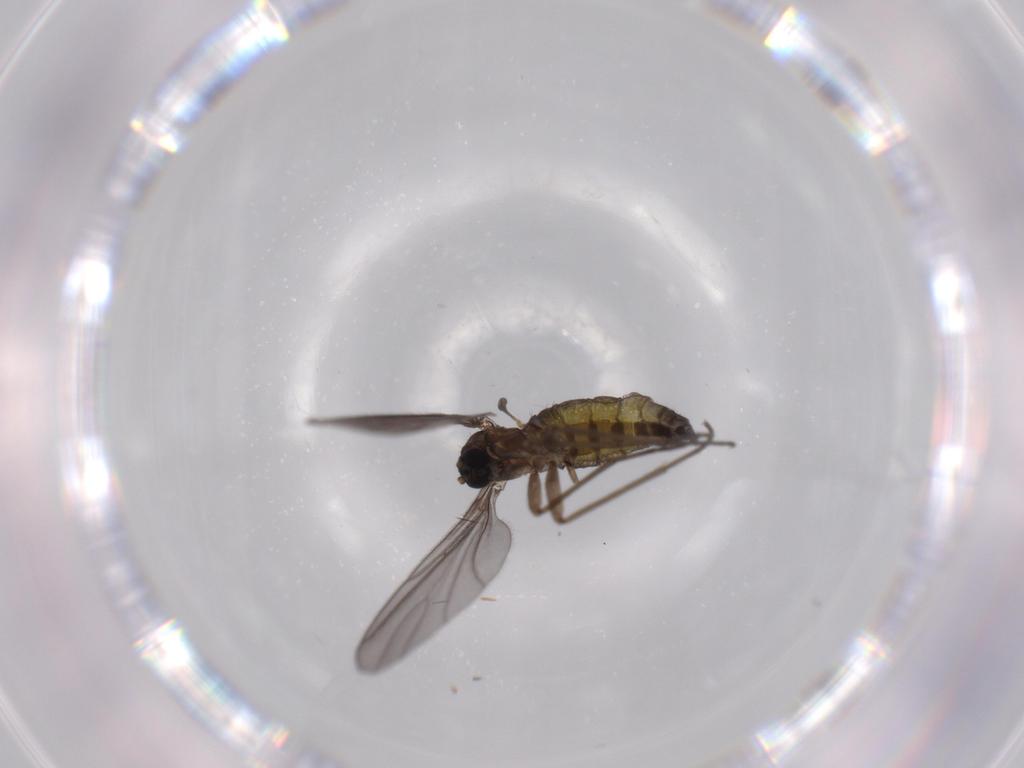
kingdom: Animalia
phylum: Arthropoda
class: Insecta
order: Diptera
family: Sciaridae
